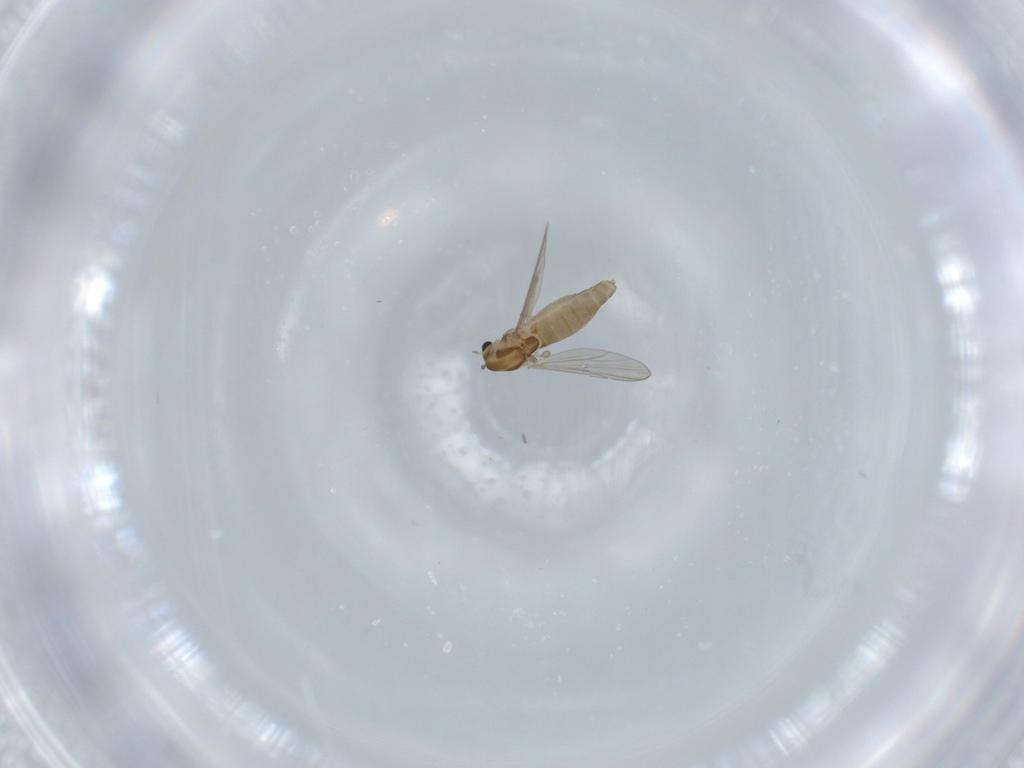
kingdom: Animalia
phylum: Arthropoda
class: Insecta
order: Diptera
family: Chironomidae
